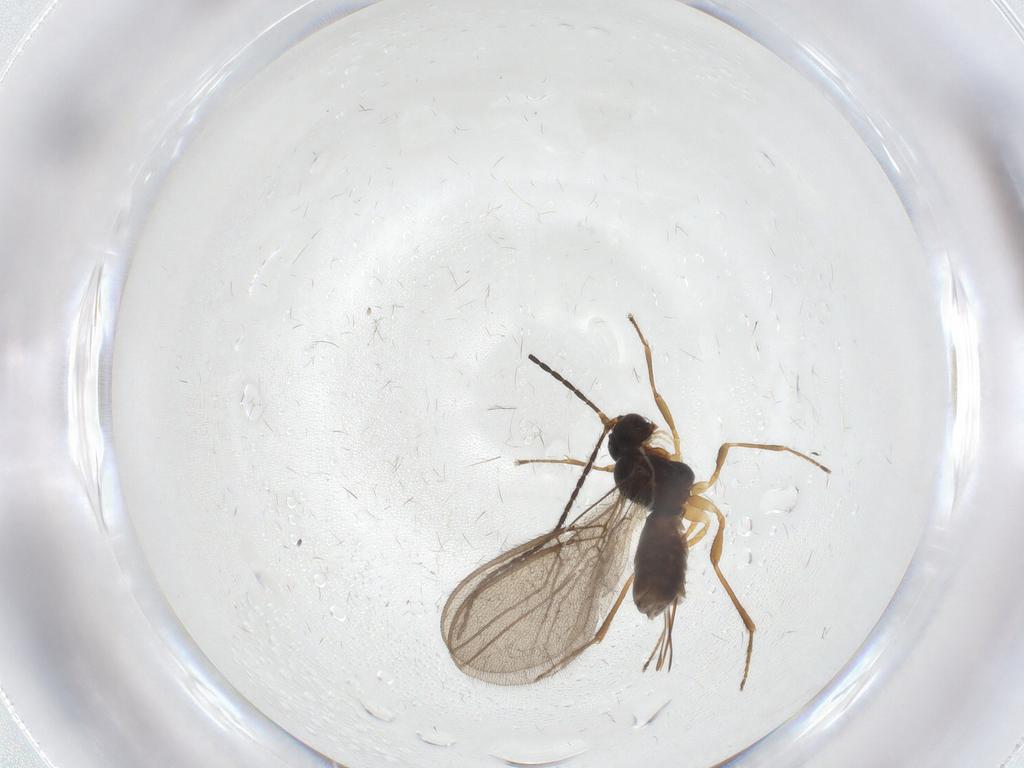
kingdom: Animalia
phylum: Arthropoda
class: Insecta
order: Hymenoptera
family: Braconidae
